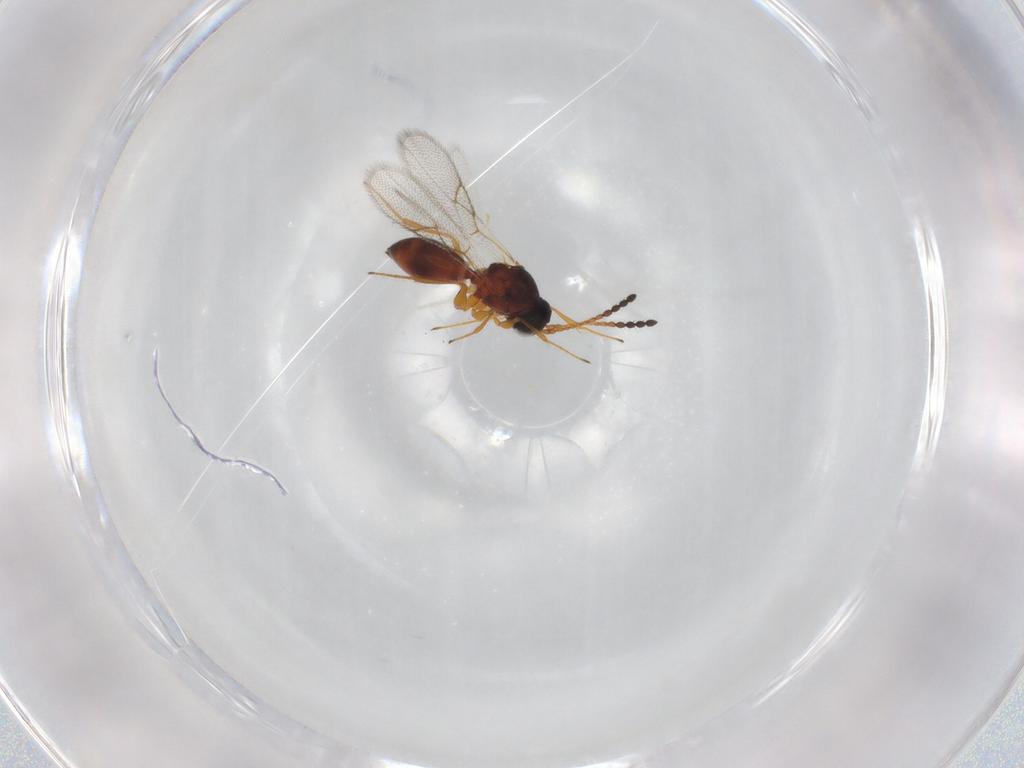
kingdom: Animalia
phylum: Arthropoda
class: Insecta
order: Hymenoptera
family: Figitidae
